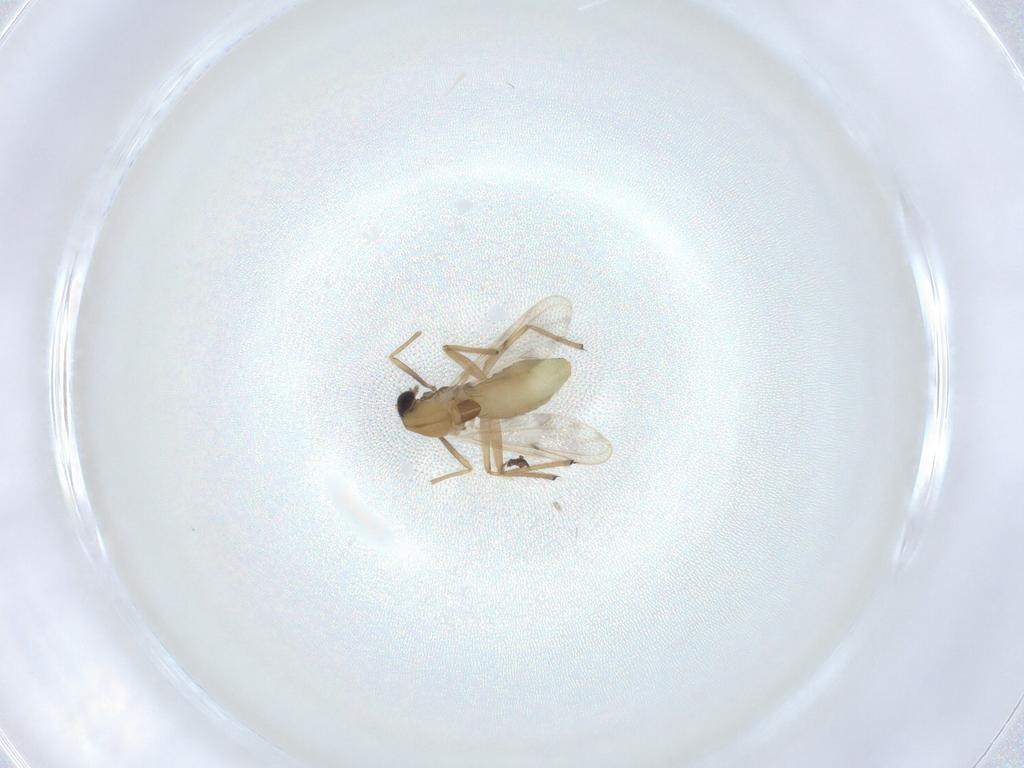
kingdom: Animalia
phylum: Arthropoda
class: Insecta
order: Diptera
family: Chironomidae
